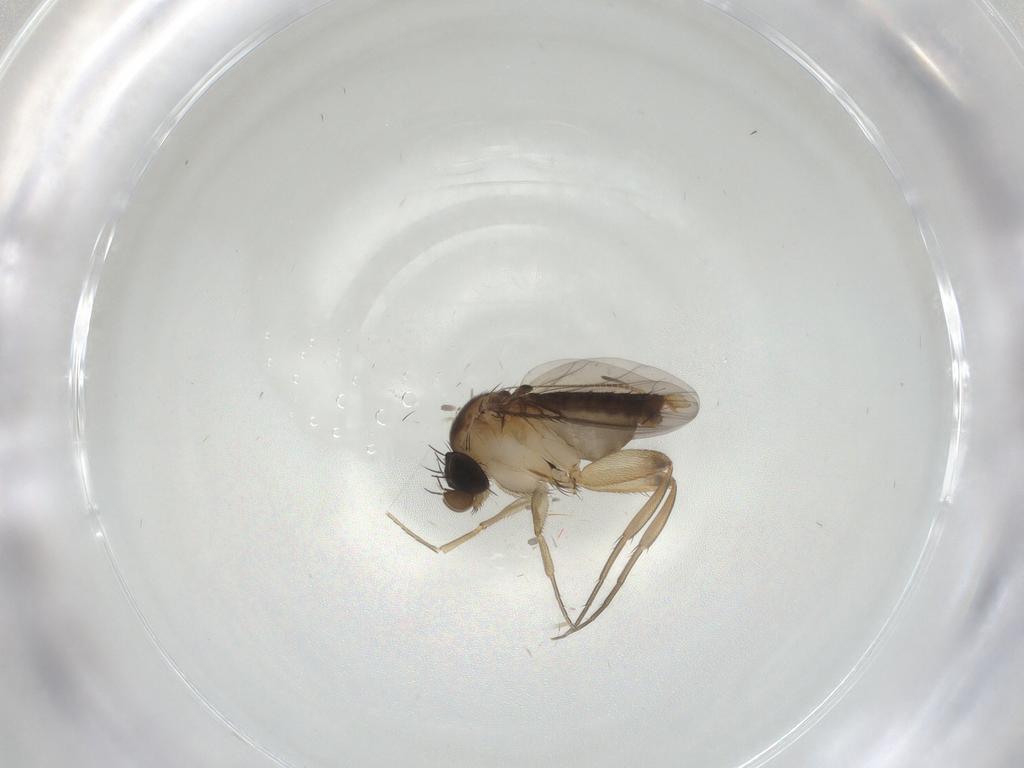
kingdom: Animalia
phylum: Arthropoda
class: Insecta
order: Diptera
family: Phoridae
